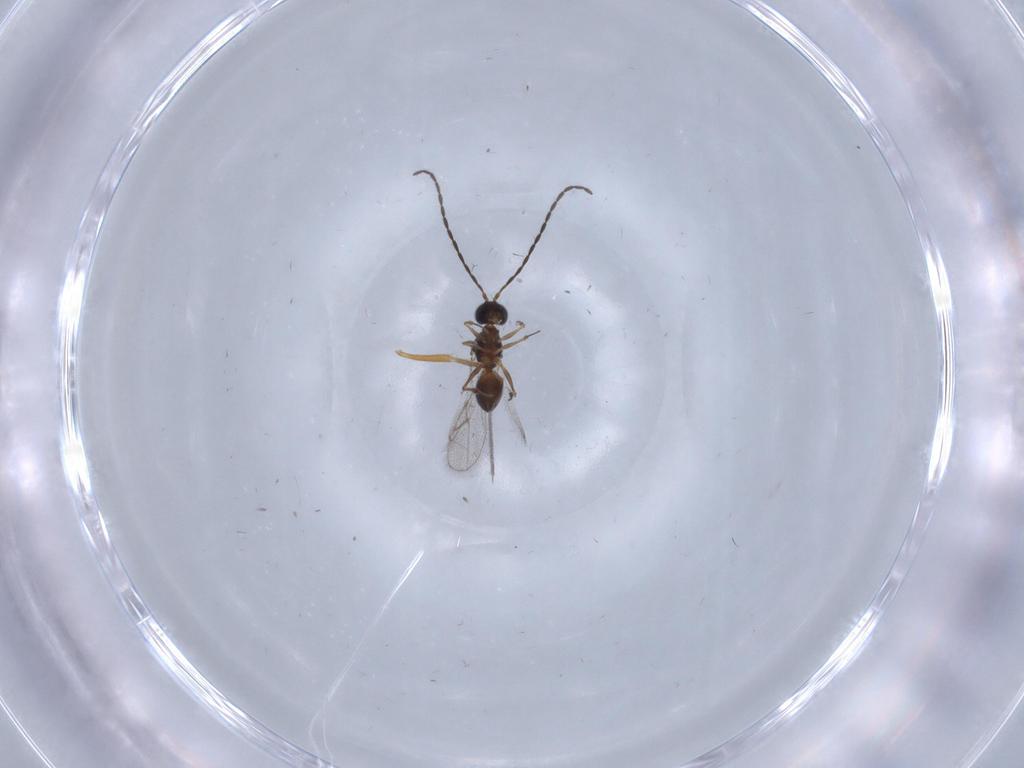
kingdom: Animalia
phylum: Arthropoda
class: Insecta
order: Hymenoptera
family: Figitidae
